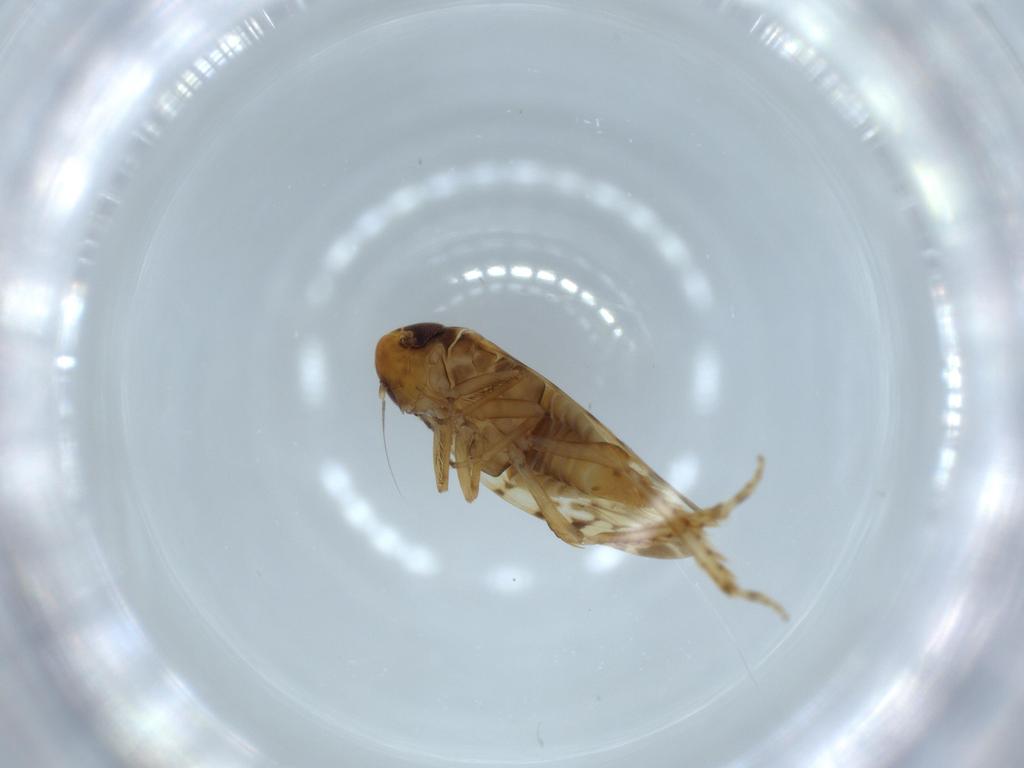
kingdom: Animalia
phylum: Arthropoda
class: Insecta
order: Hemiptera
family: Cicadellidae
